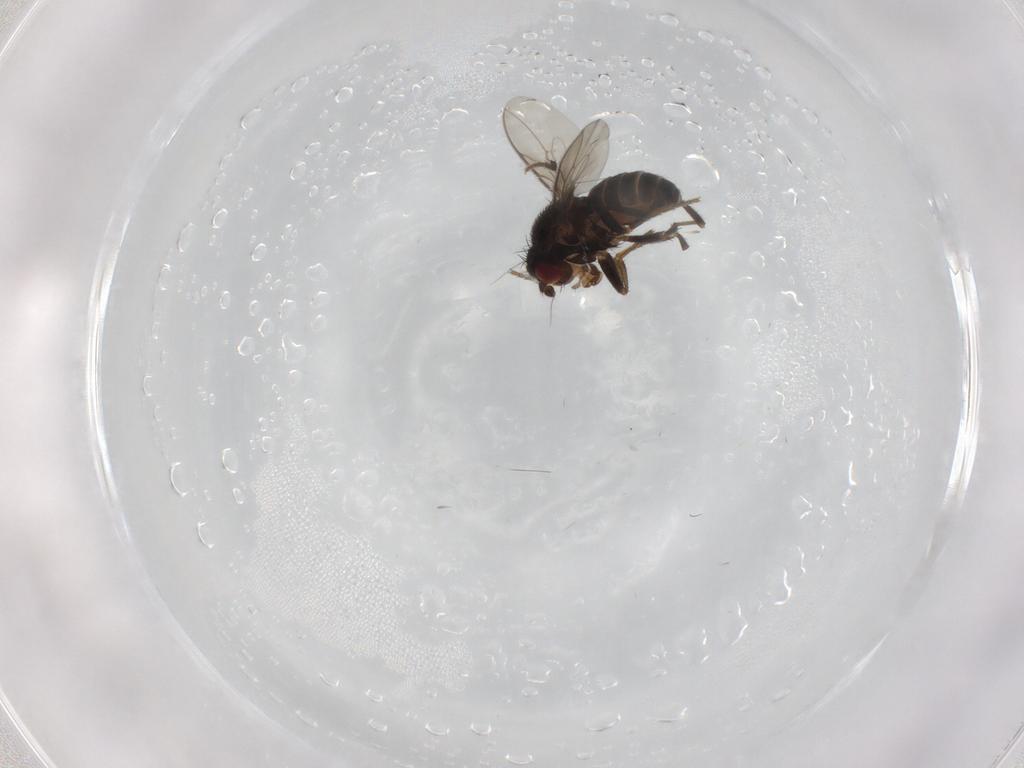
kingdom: Animalia
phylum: Arthropoda
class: Insecta
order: Diptera
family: Sphaeroceridae
